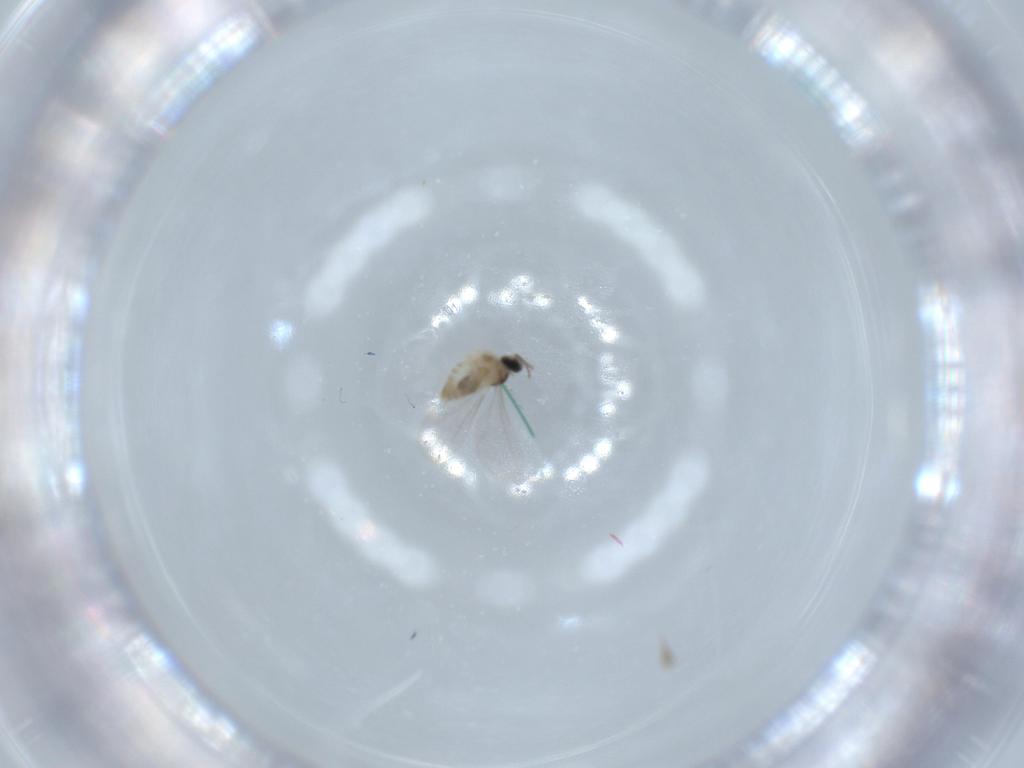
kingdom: Animalia
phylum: Arthropoda
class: Insecta
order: Diptera
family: Cecidomyiidae
